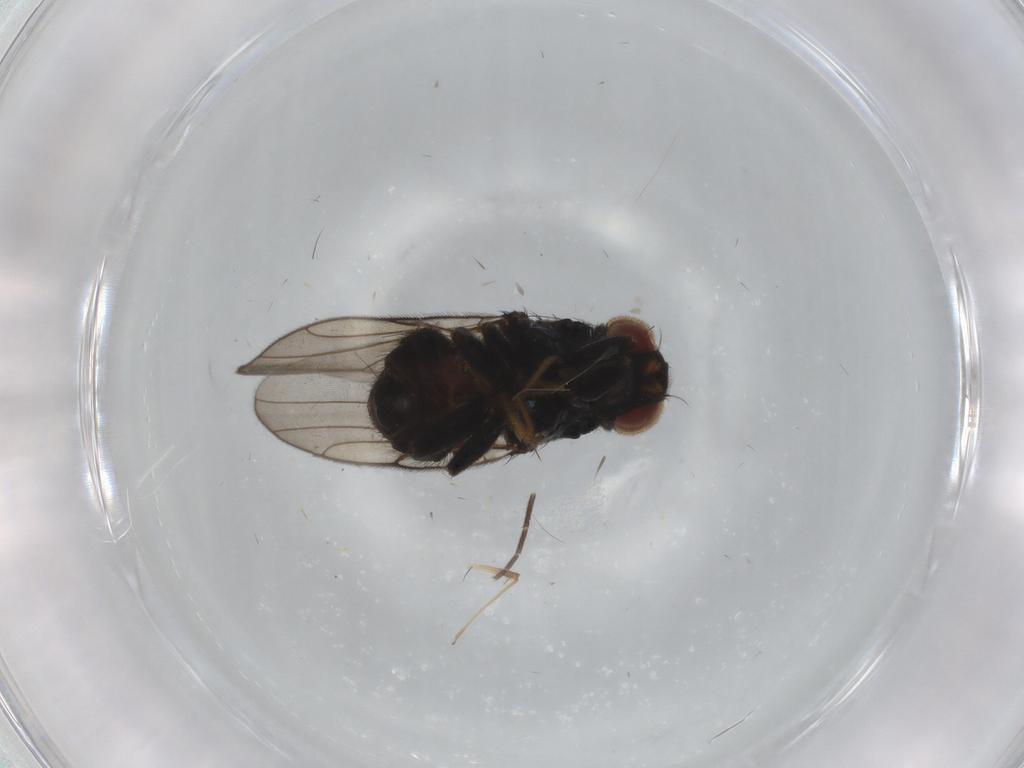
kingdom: Animalia
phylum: Arthropoda
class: Insecta
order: Diptera
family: Chloropidae
